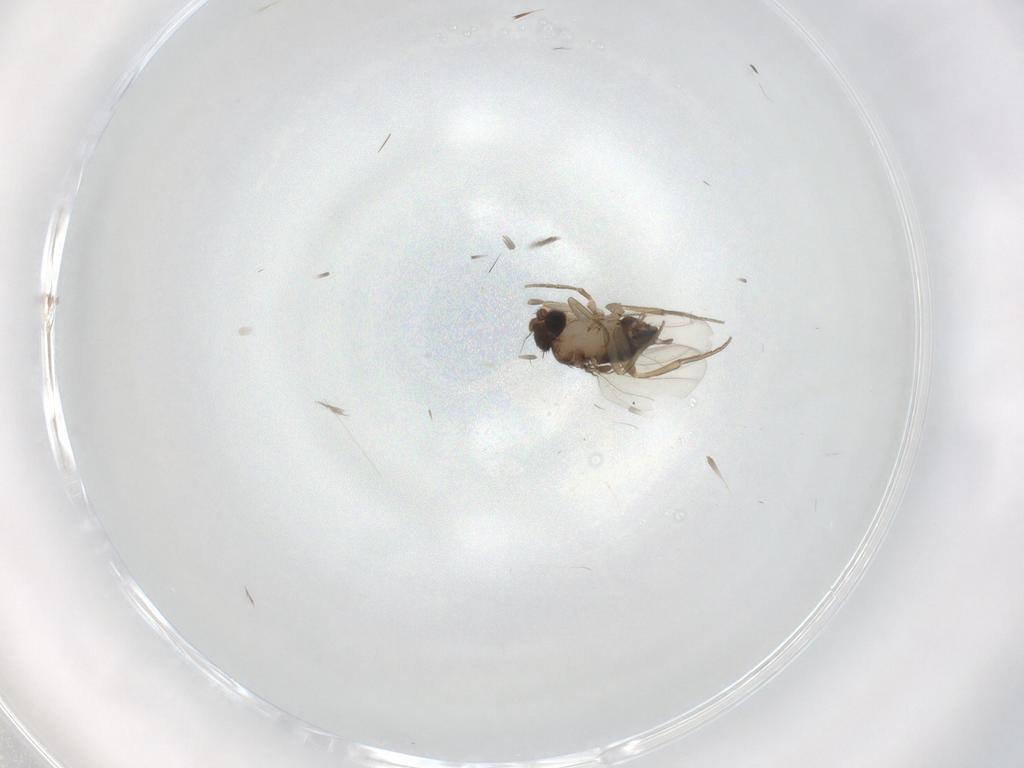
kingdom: Animalia
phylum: Arthropoda
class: Insecta
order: Diptera
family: Phoridae
